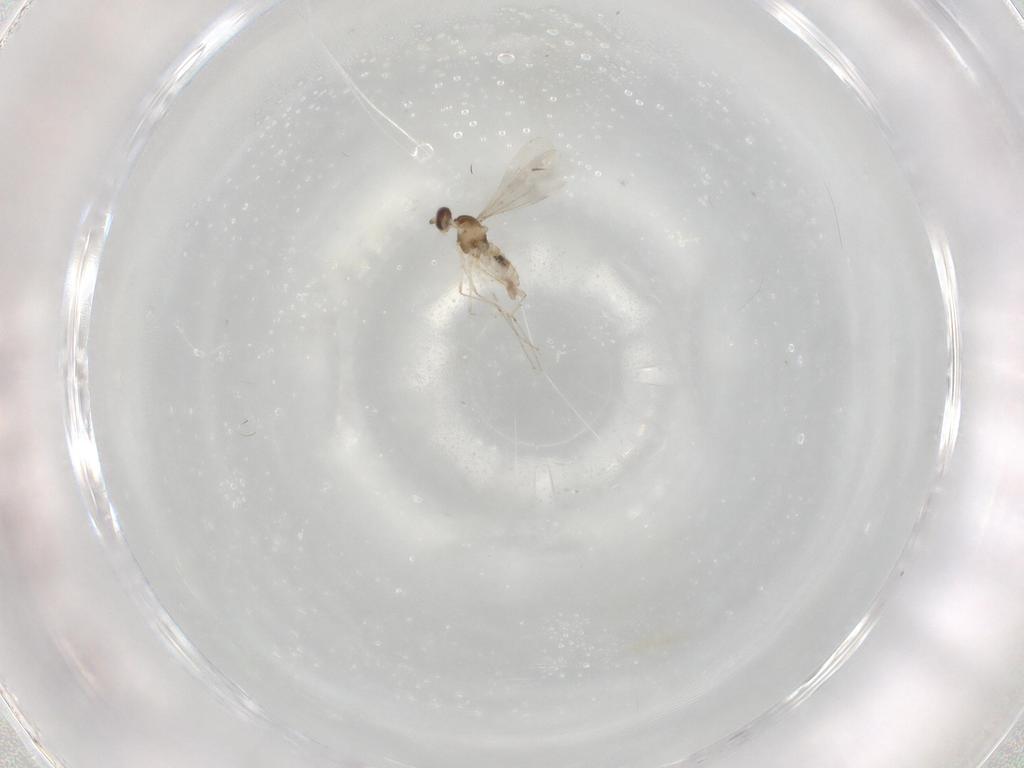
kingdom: Animalia
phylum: Arthropoda
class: Insecta
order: Diptera
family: Cecidomyiidae
